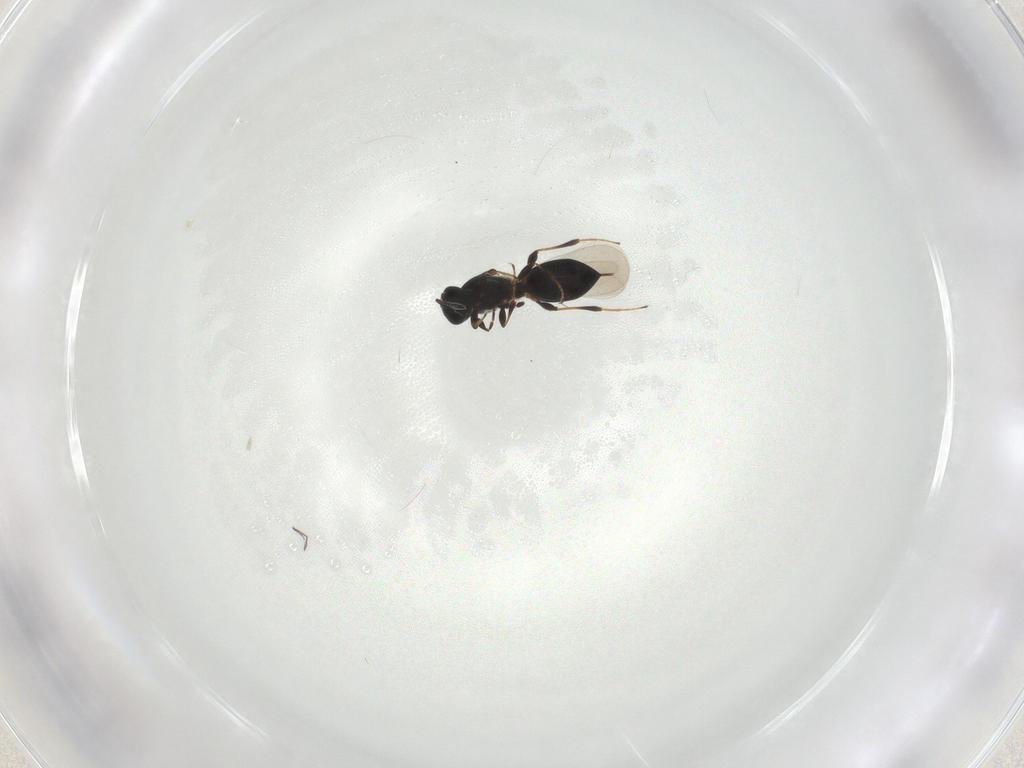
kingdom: Animalia
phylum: Arthropoda
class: Insecta
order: Hymenoptera
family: Platygastridae
